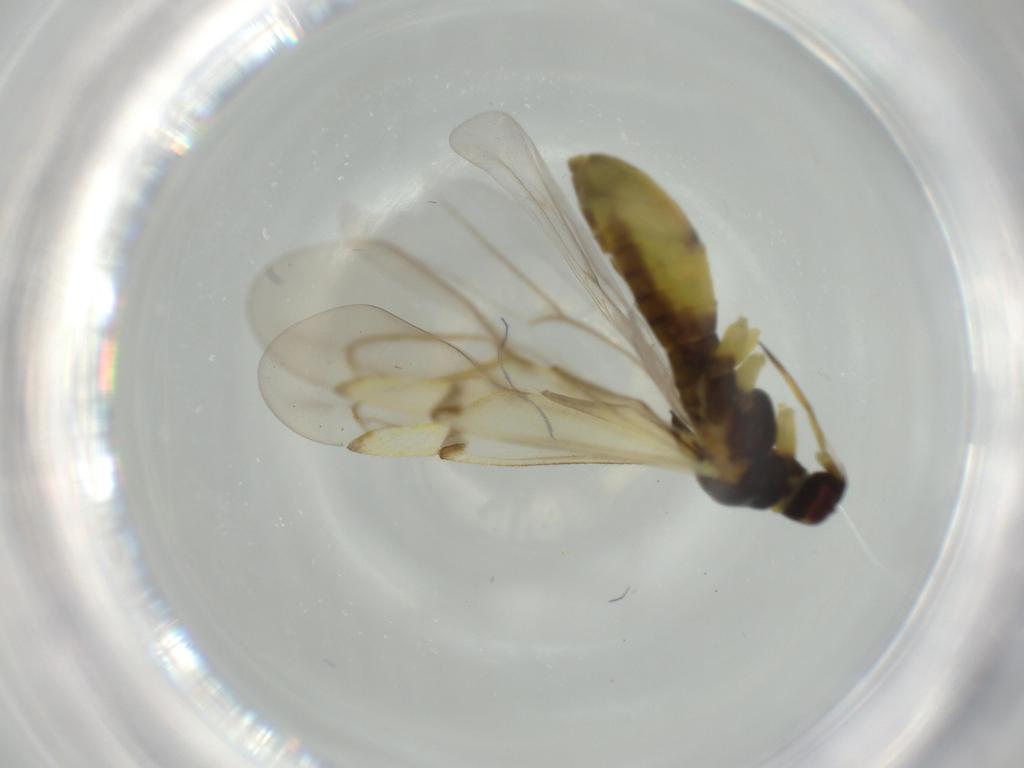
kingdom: Animalia
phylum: Arthropoda
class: Insecta
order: Hemiptera
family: Miridae
